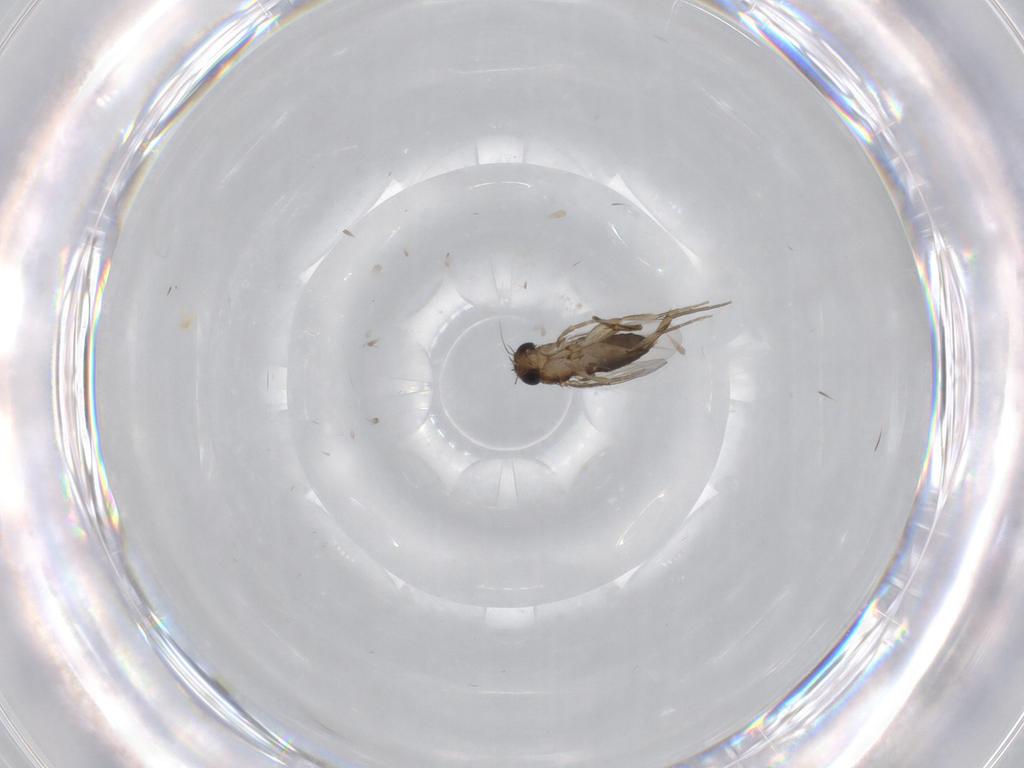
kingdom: Animalia
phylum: Arthropoda
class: Insecta
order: Diptera
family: Phoridae
